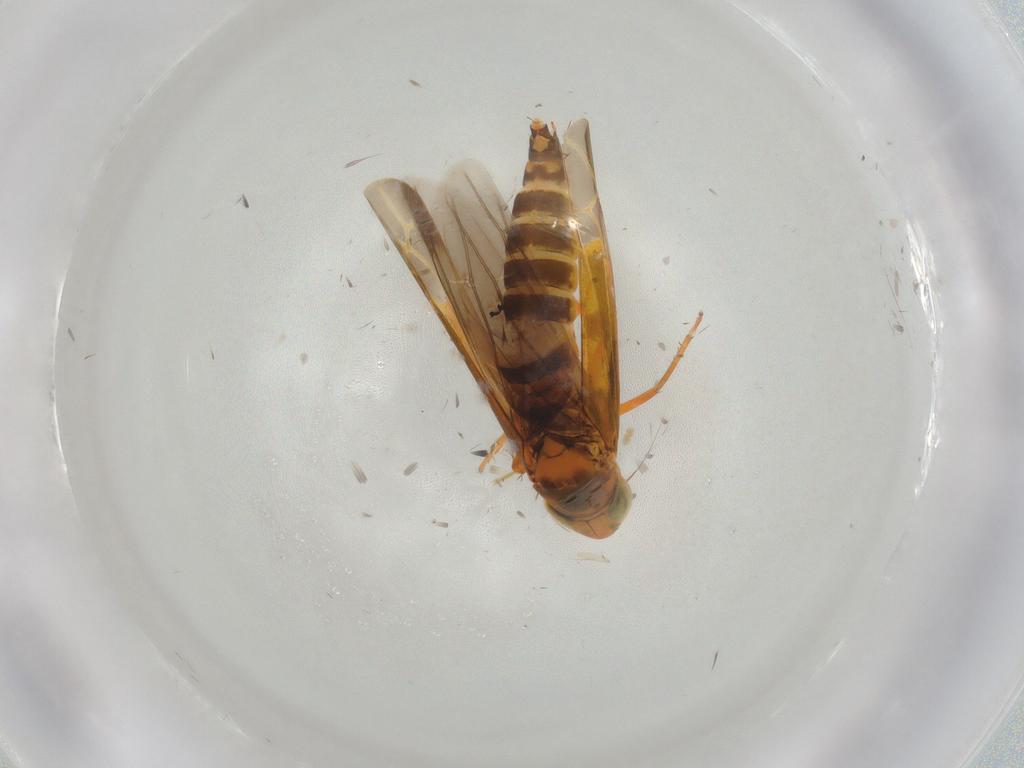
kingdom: Animalia
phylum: Arthropoda
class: Insecta
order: Hemiptera
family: Cicadellidae
